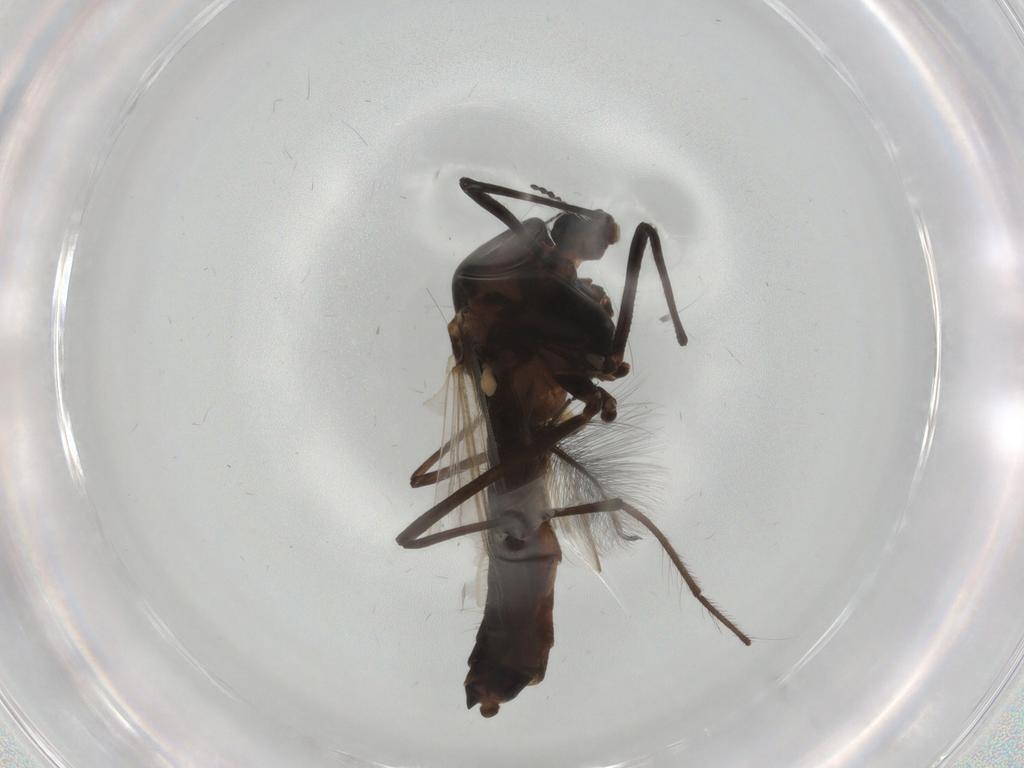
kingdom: Animalia
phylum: Arthropoda
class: Insecta
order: Diptera
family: Chironomidae
